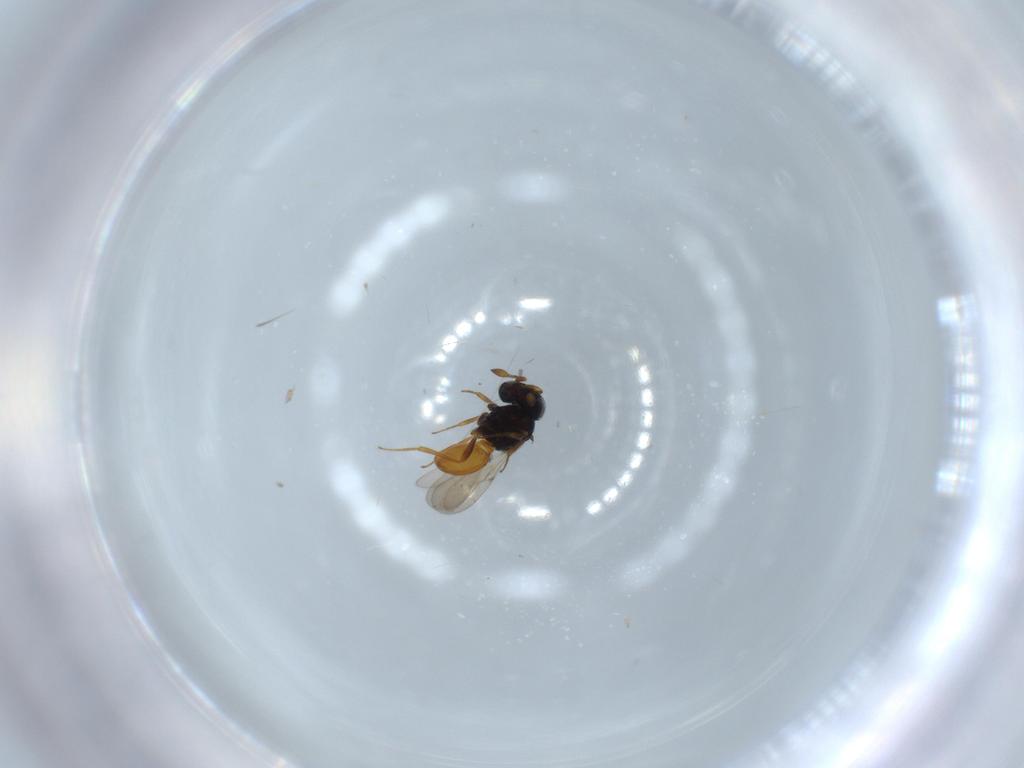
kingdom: Animalia
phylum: Arthropoda
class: Insecta
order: Hymenoptera
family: Scelionidae
